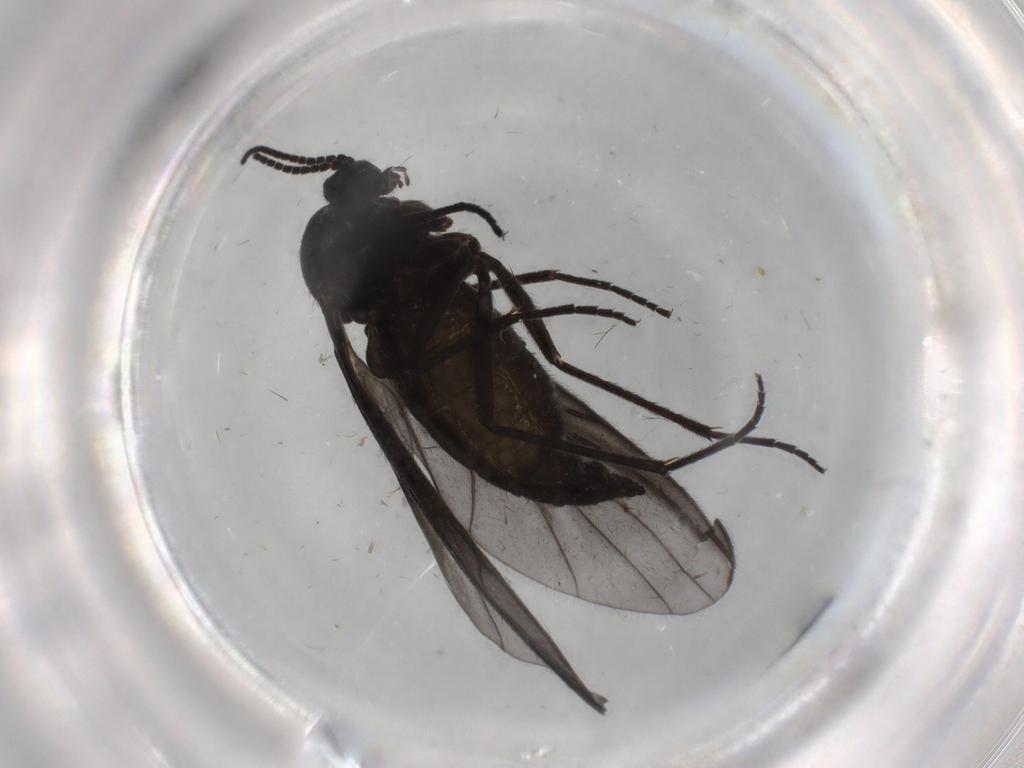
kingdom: Animalia
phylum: Arthropoda
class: Insecta
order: Diptera
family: Sciaridae
